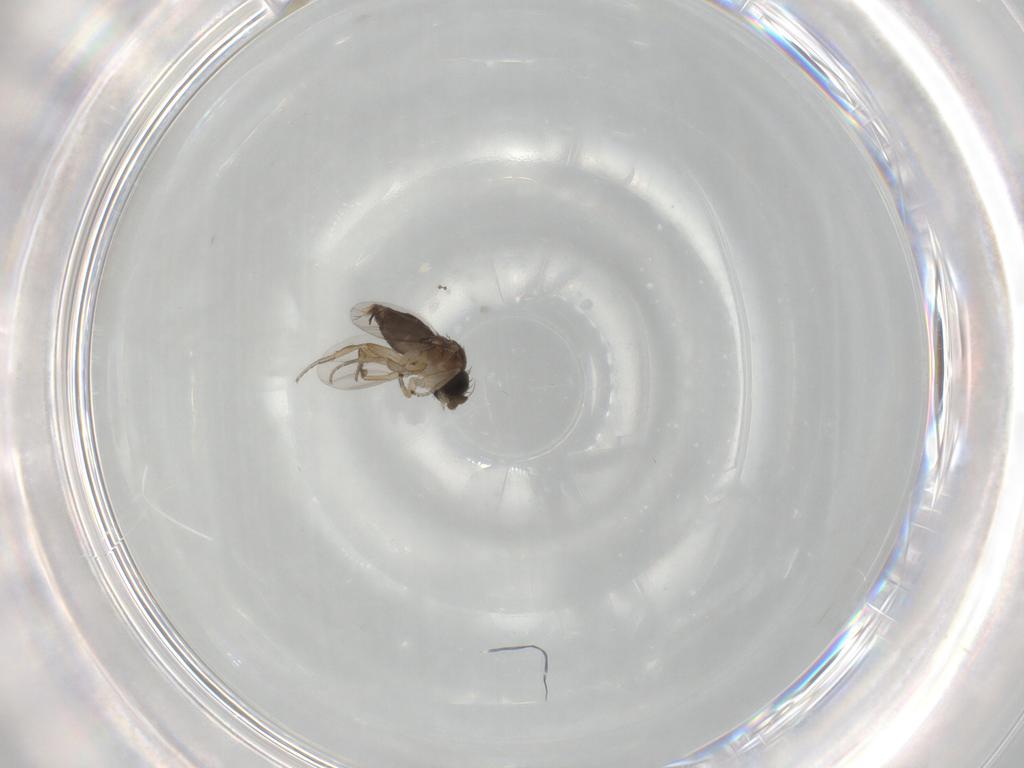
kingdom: Animalia
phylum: Arthropoda
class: Insecta
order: Diptera
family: Phoridae
